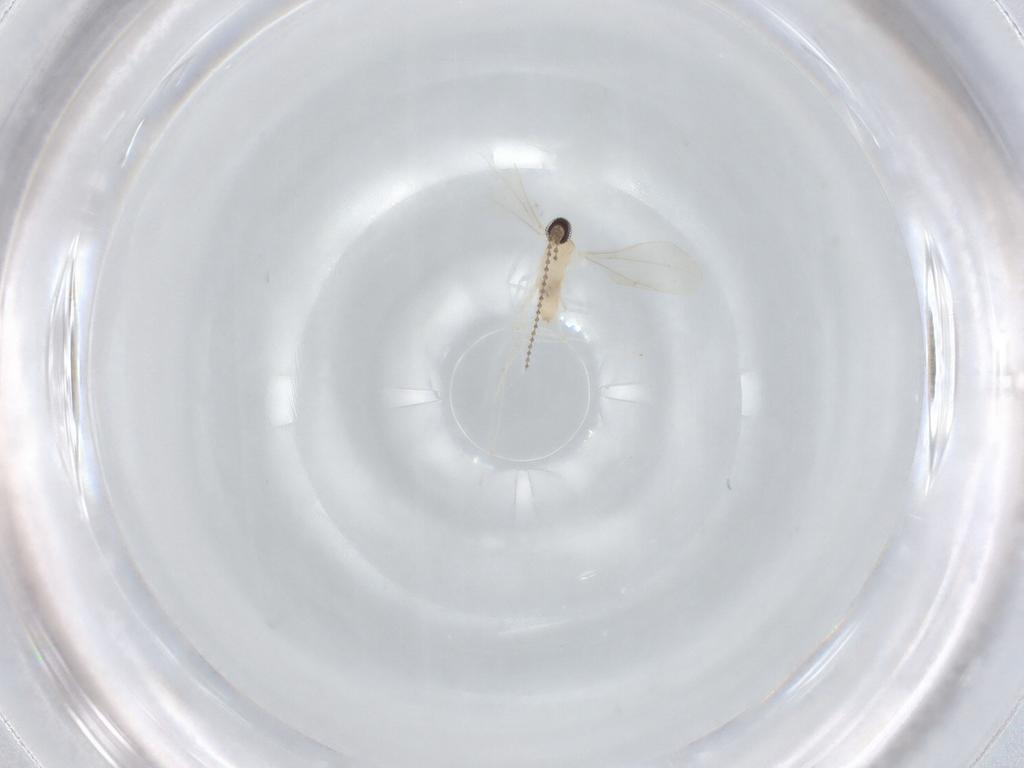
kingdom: Animalia
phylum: Arthropoda
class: Insecta
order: Diptera
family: Cecidomyiidae
